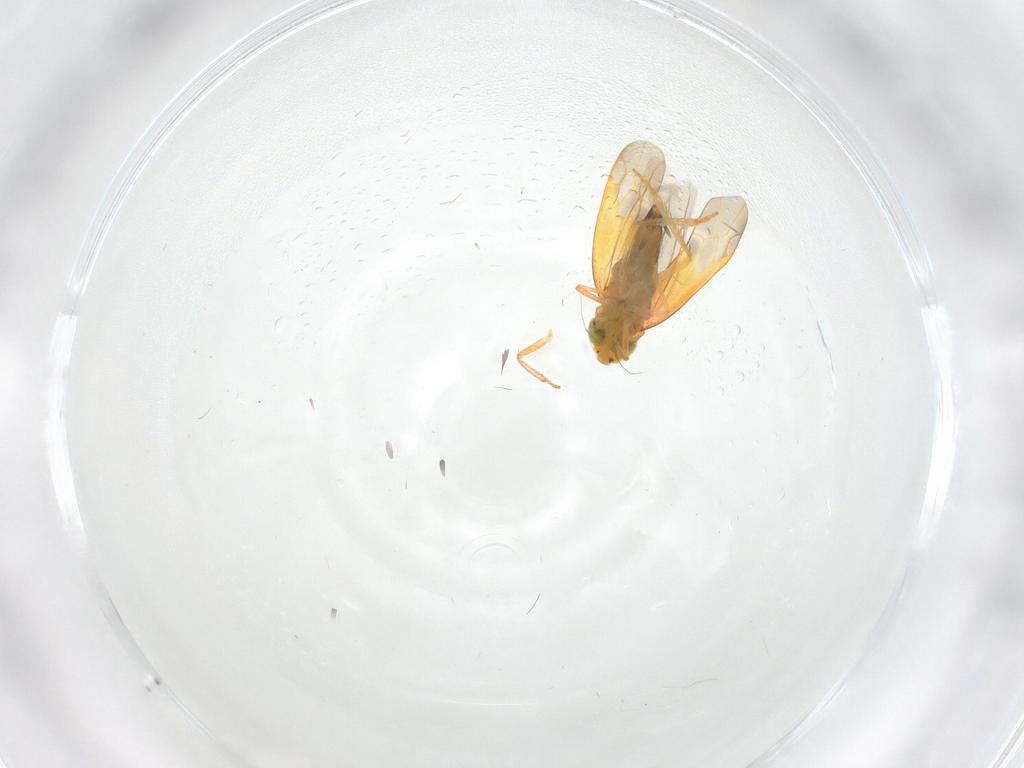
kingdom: Animalia
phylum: Arthropoda
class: Insecta
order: Hemiptera
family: Cicadellidae
